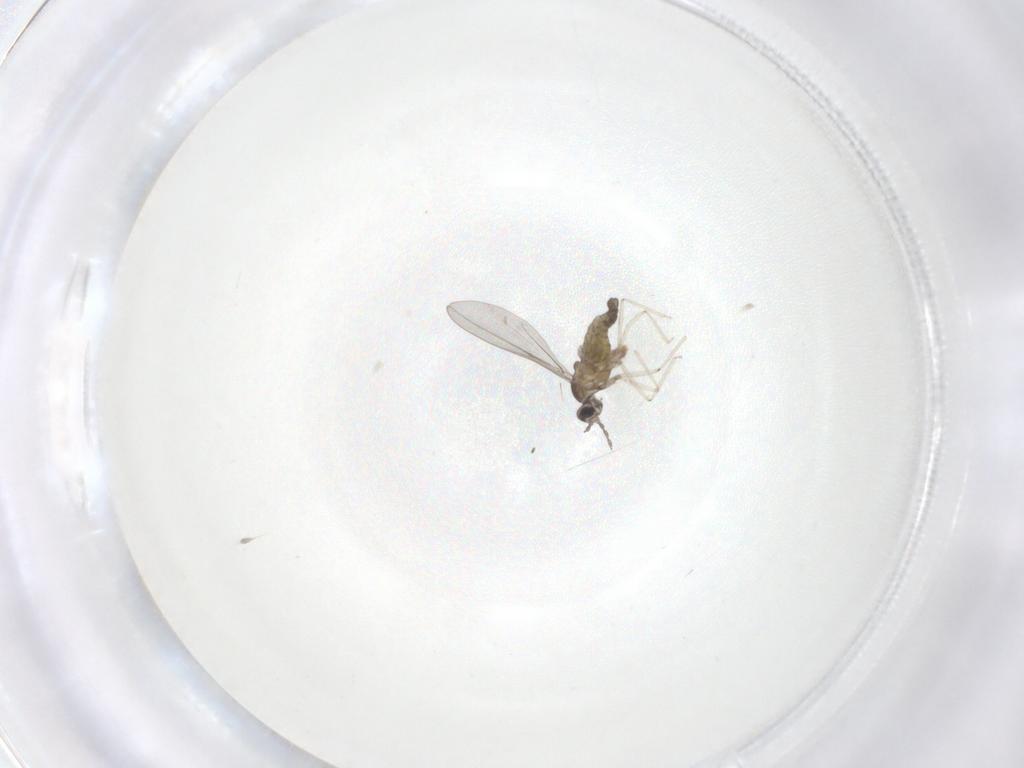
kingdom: Animalia
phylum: Arthropoda
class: Insecta
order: Diptera
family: Cecidomyiidae
